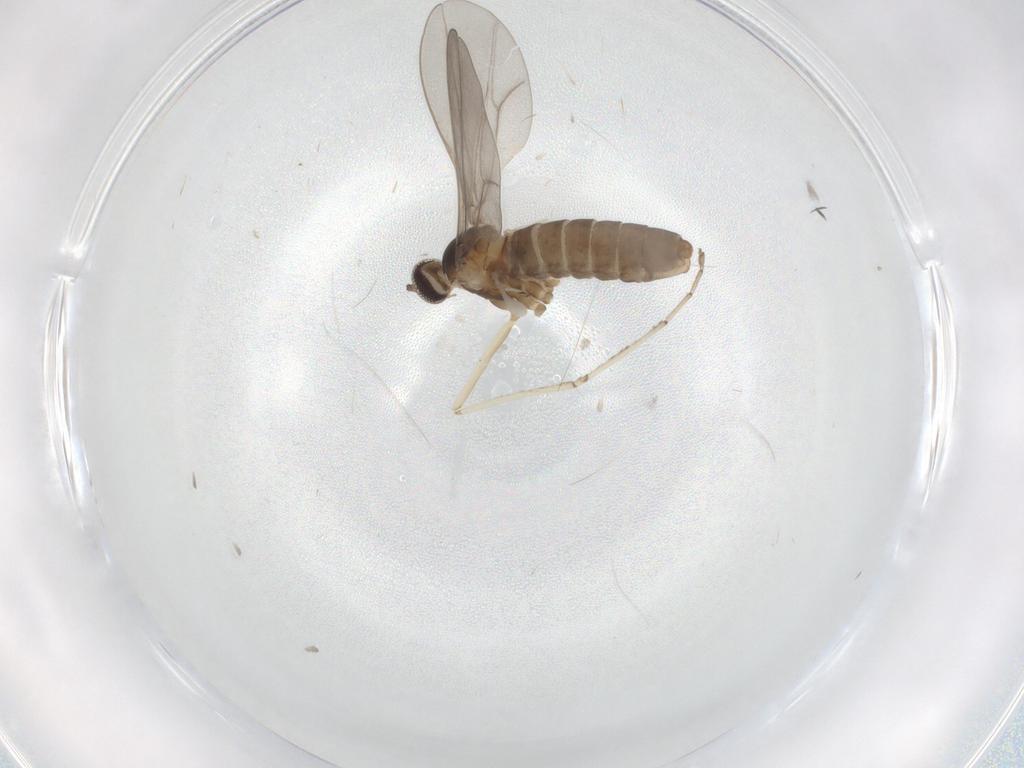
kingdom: Animalia
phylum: Arthropoda
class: Insecta
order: Diptera
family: Cecidomyiidae
